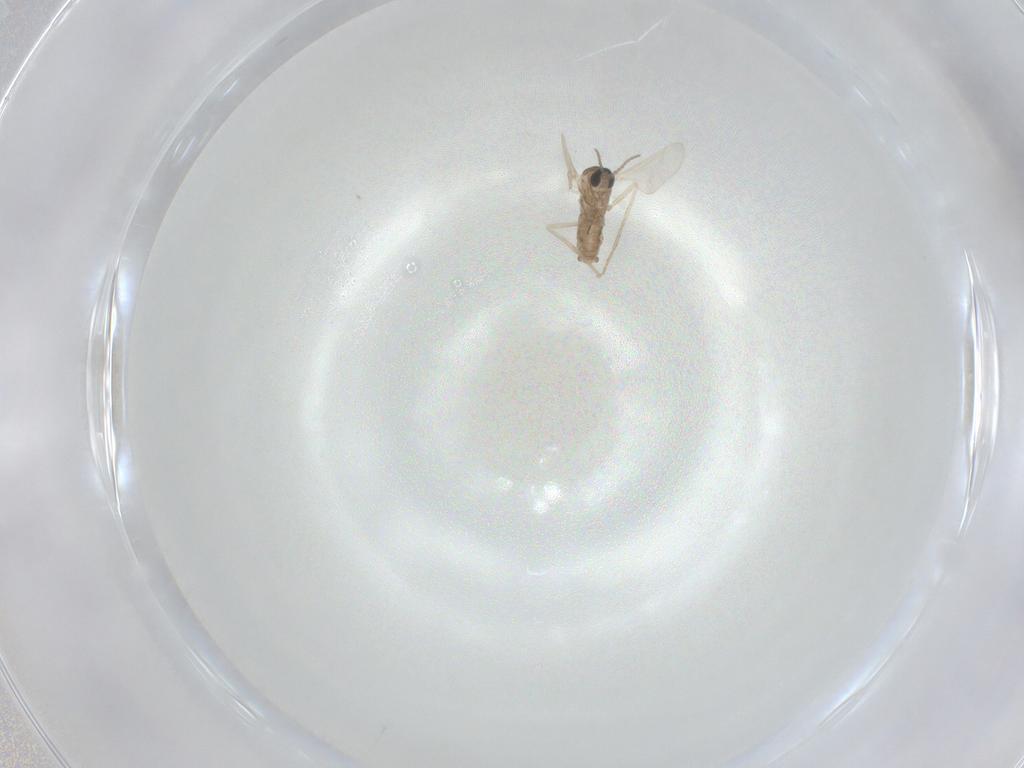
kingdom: Animalia
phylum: Arthropoda
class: Insecta
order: Diptera
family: Cecidomyiidae
